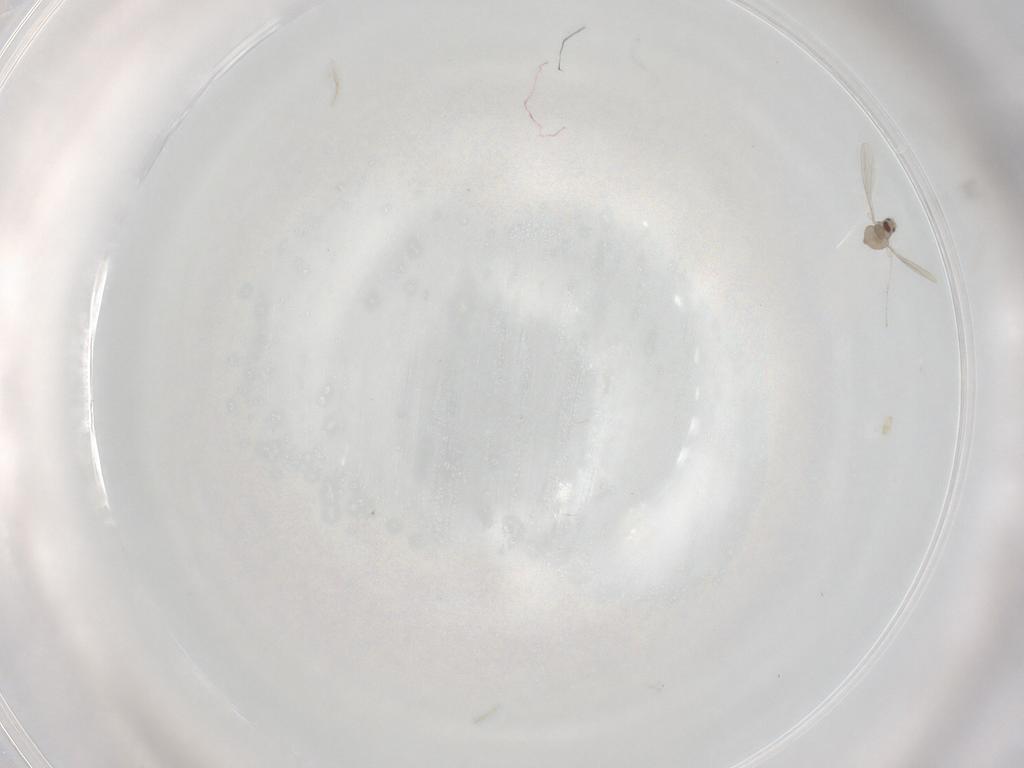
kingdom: Animalia
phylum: Arthropoda
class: Insecta
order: Diptera
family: Cecidomyiidae
